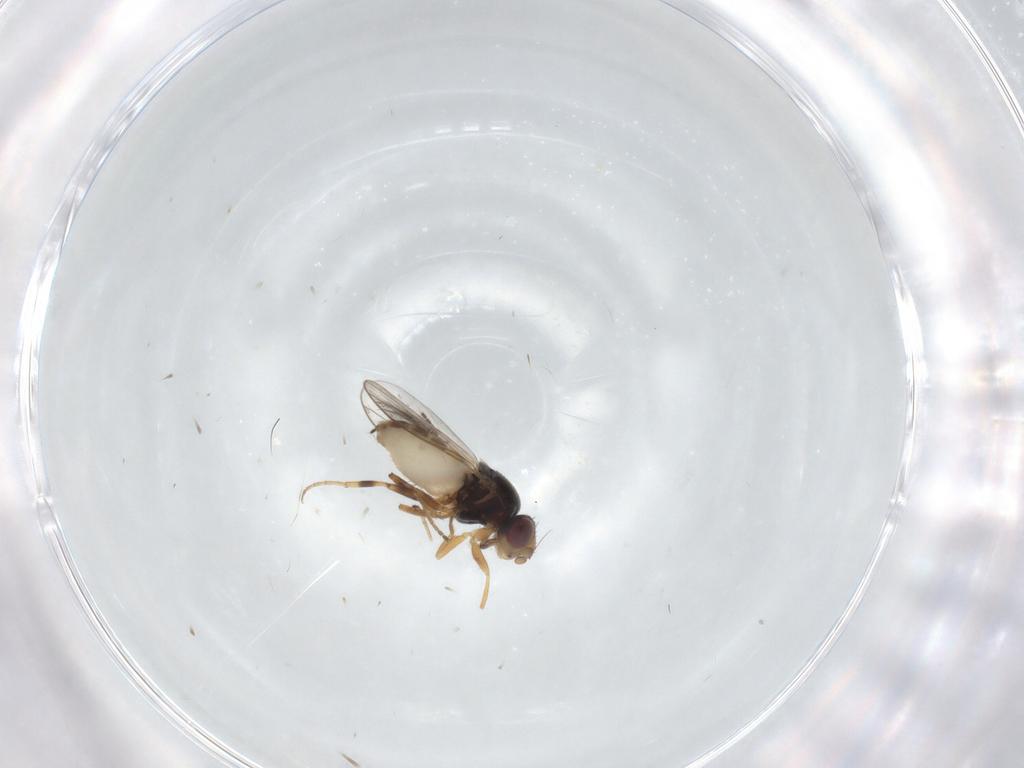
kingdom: Animalia
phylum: Arthropoda
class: Insecta
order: Diptera
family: Chloropidae
